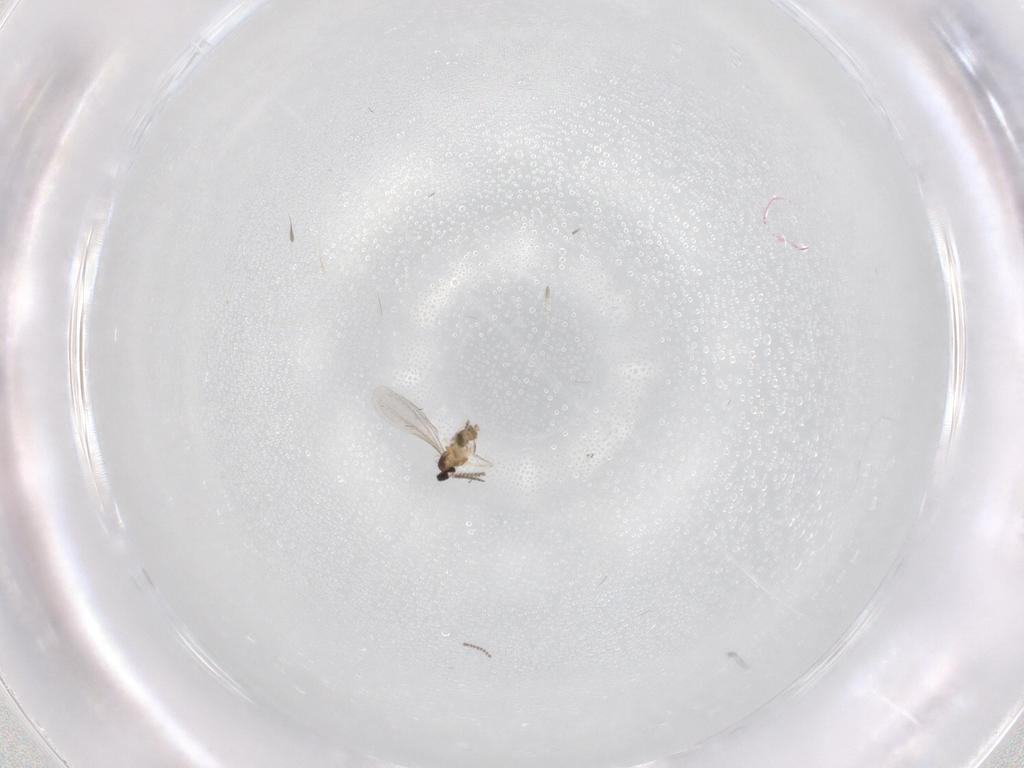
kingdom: Animalia
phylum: Arthropoda
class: Insecta
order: Diptera
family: Cecidomyiidae
